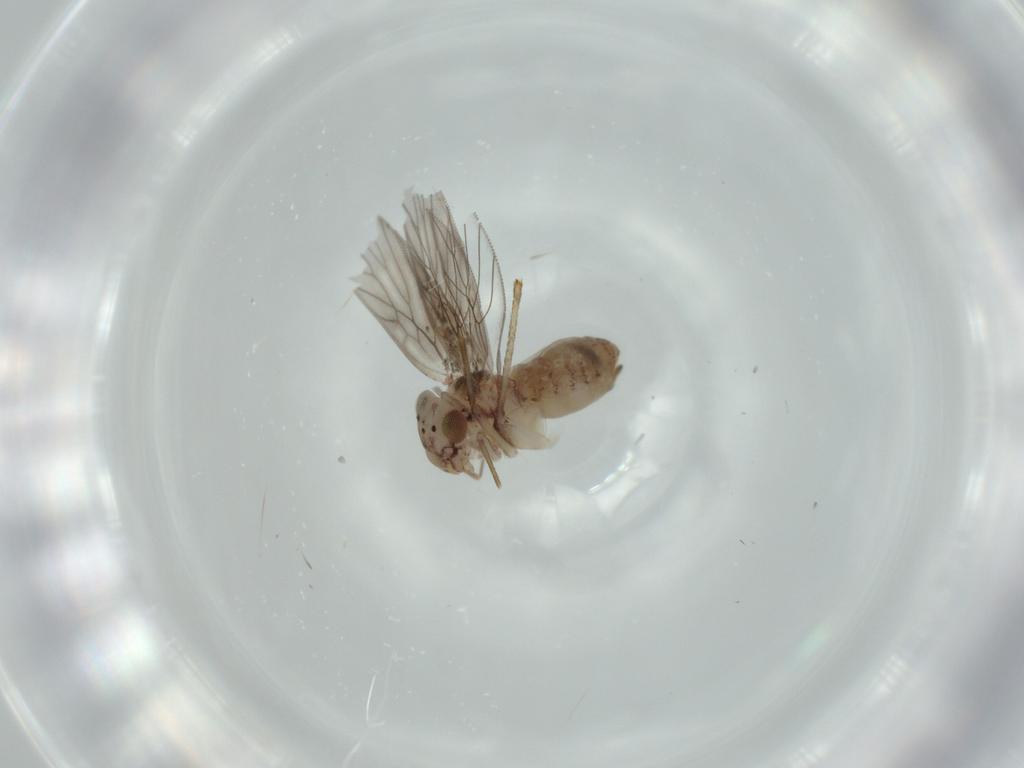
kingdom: Animalia
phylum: Arthropoda
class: Insecta
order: Psocodea
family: Lepidopsocidae
